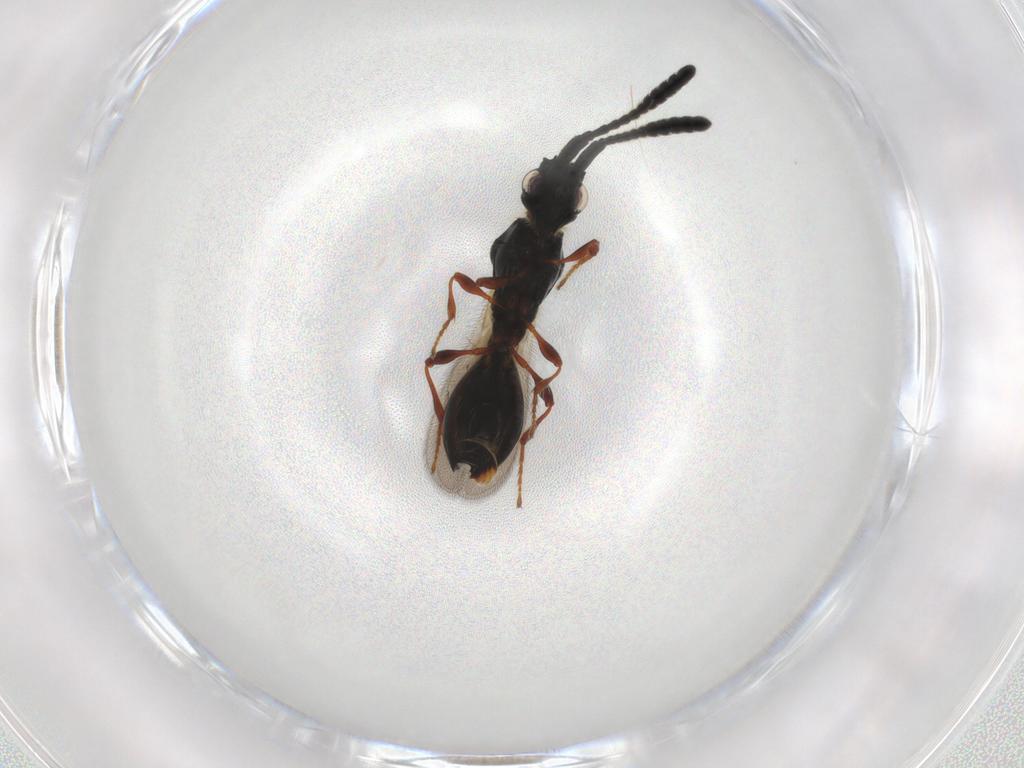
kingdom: Animalia
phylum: Arthropoda
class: Insecta
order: Hymenoptera
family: Diapriidae
